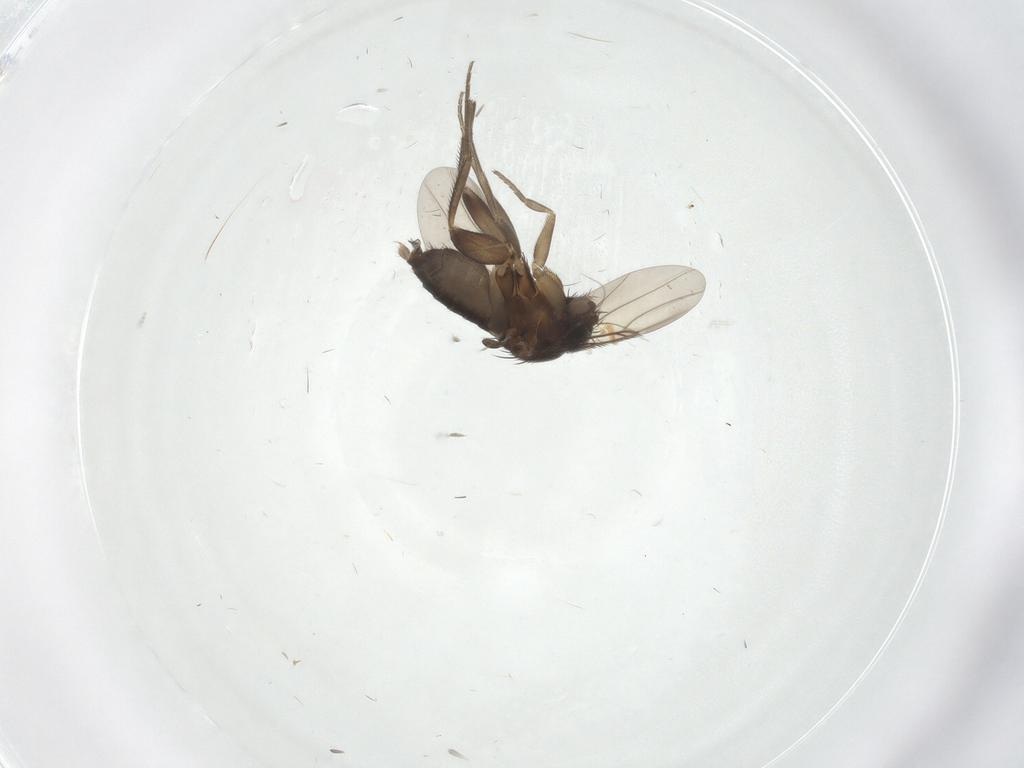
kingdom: Animalia
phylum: Arthropoda
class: Insecta
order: Diptera
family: Phoridae
